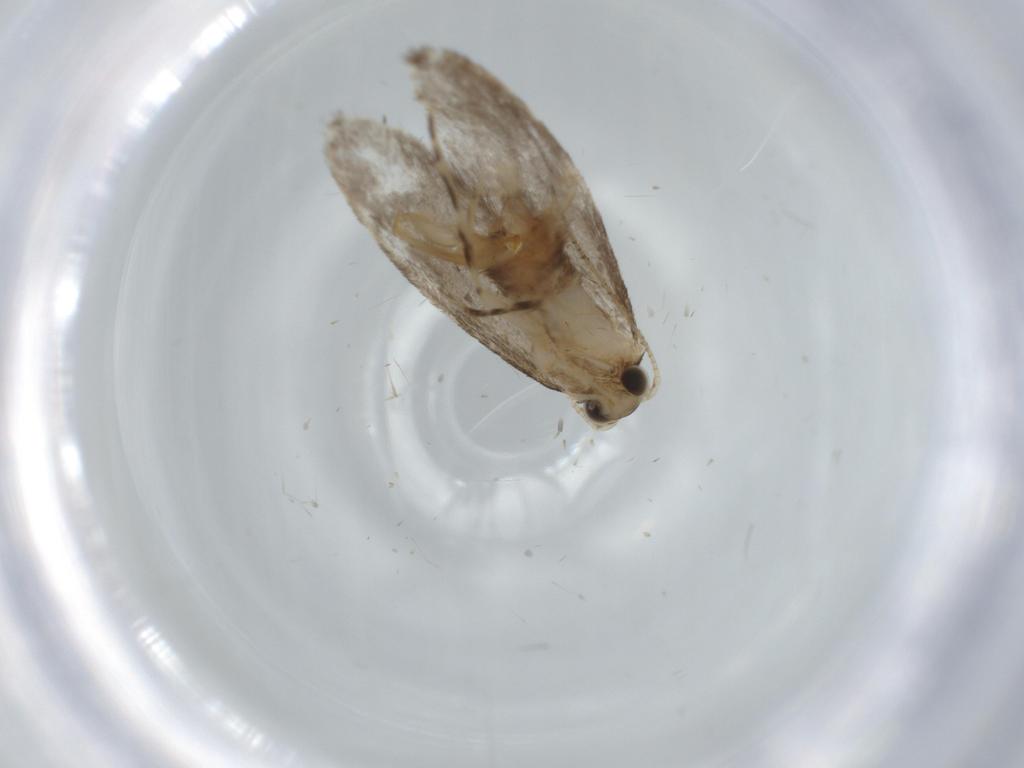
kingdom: Animalia
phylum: Arthropoda
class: Insecta
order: Lepidoptera
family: Tineidae
